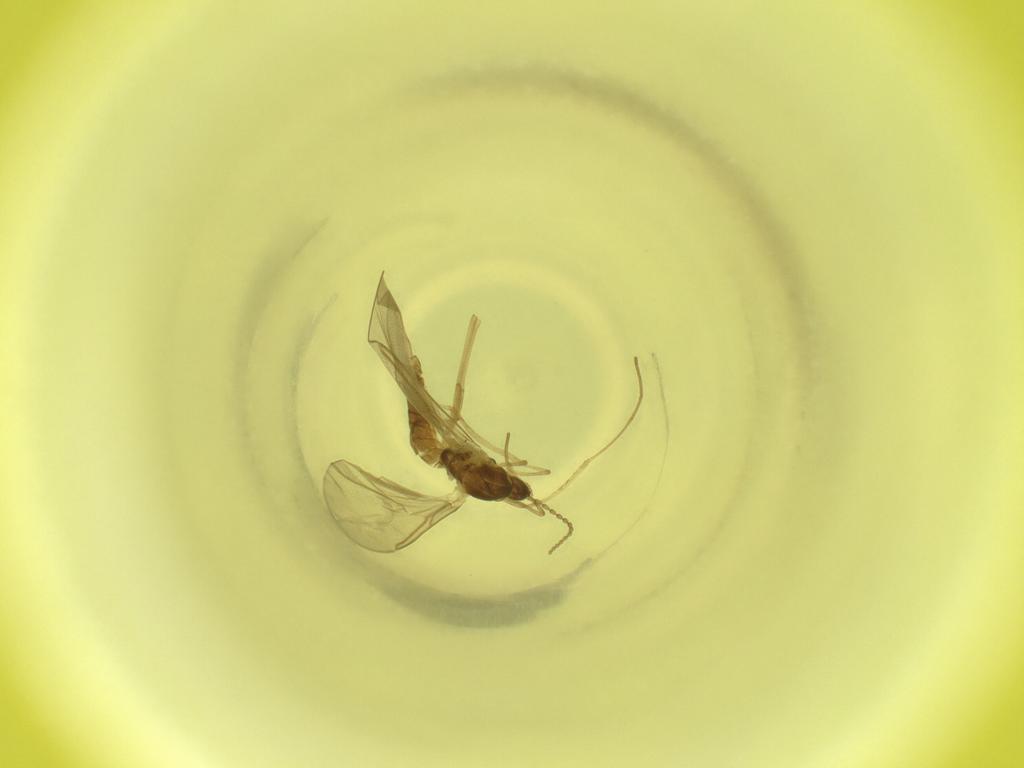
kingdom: Animalia
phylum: Arthropoda
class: Insecta
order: Diptera
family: Cecidomyiidae
